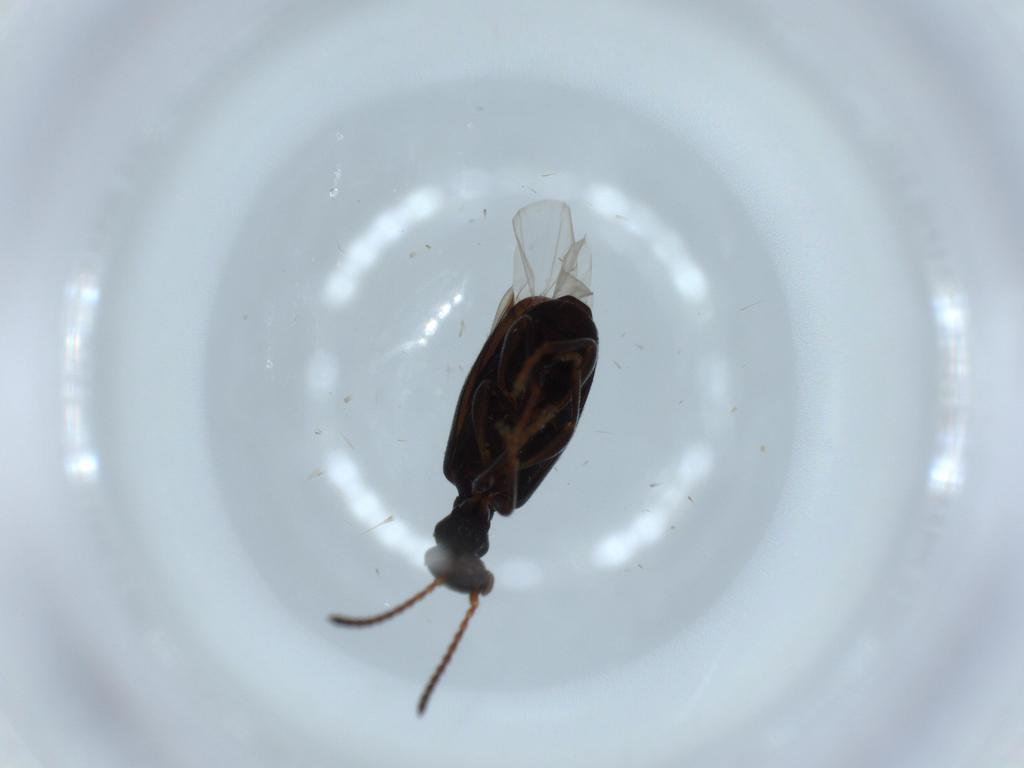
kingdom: Animalia
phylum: Arthropoda
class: Insecta
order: Coleoptera
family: Anthicidae
